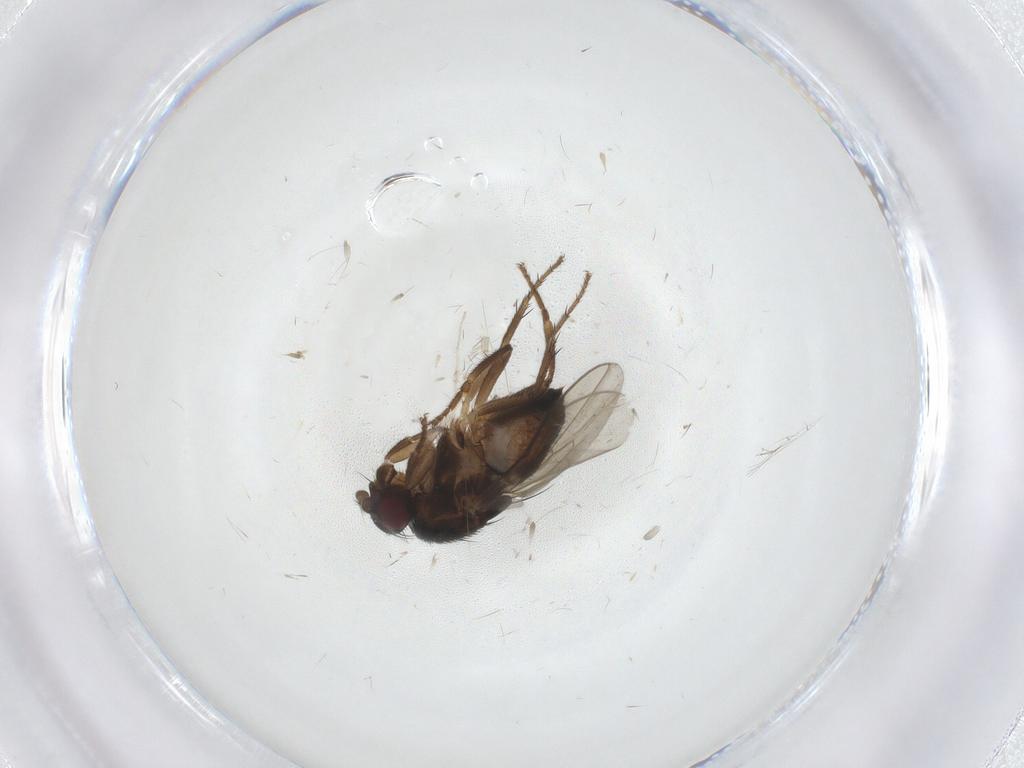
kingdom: Animalia
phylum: Arthropoda
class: Insecta
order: Diptera
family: Sphaeroceridae
